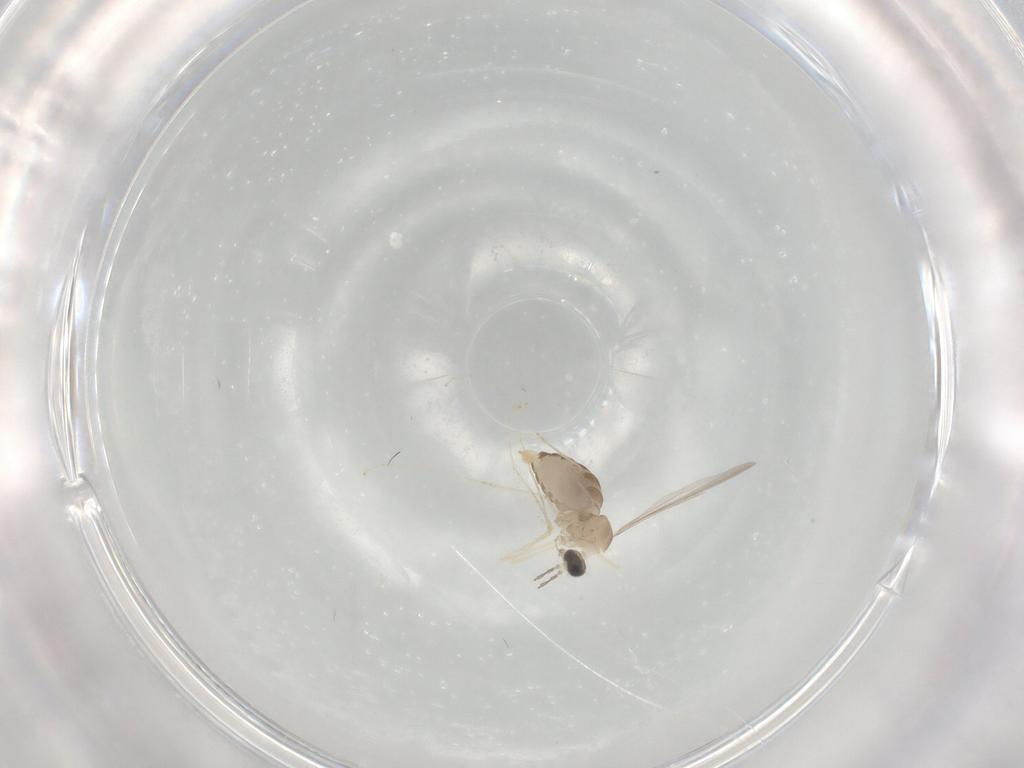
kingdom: Animalia
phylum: Arthropoda
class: Insecta
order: Diptera
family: Cecidomyiidae
